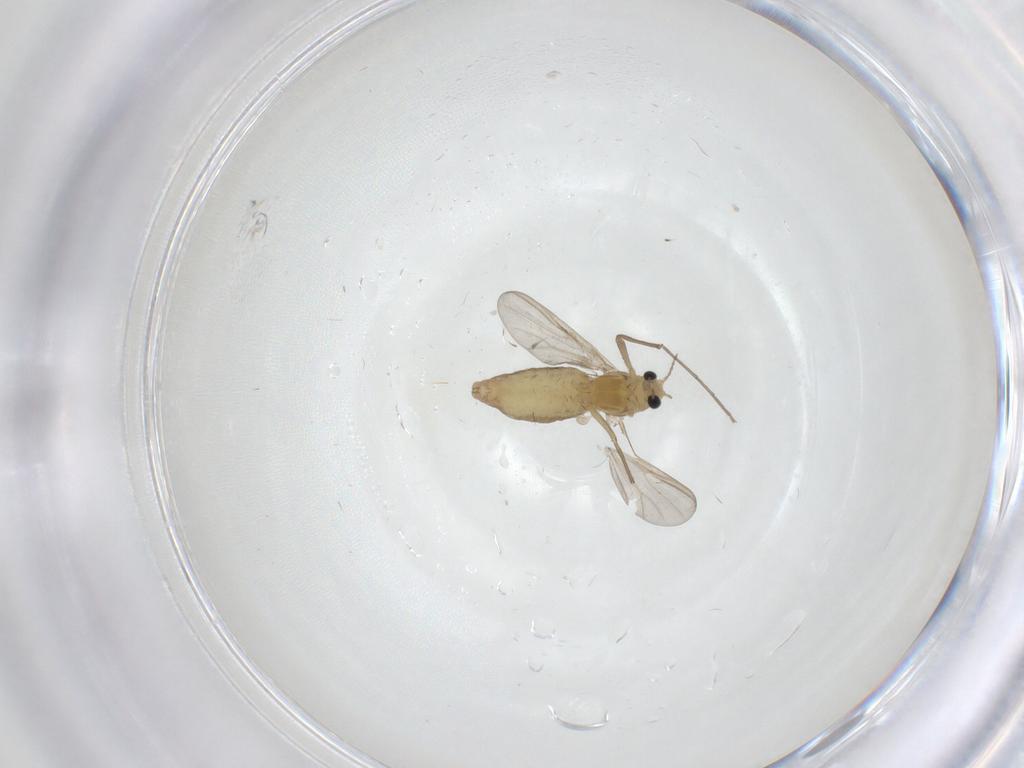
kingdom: Animalia
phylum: Arthropoda
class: Insecta
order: Diptera
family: Chironomidae
